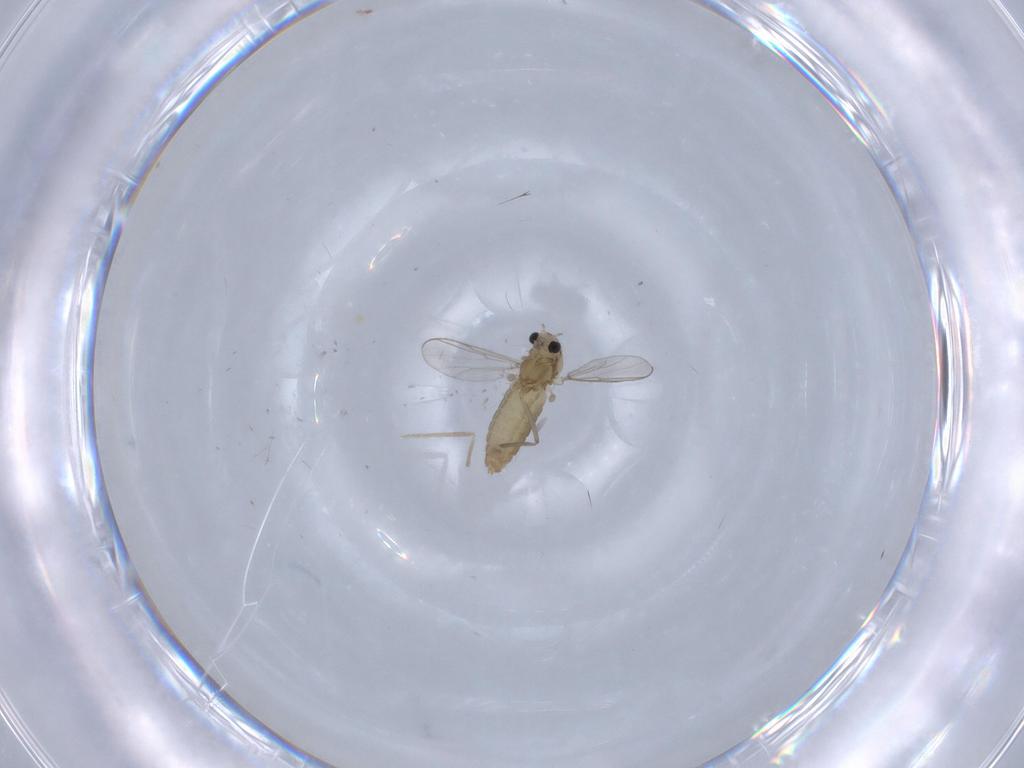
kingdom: Animalia
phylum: Arthropoda
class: Insecta
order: Diptera
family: Chironomidae
